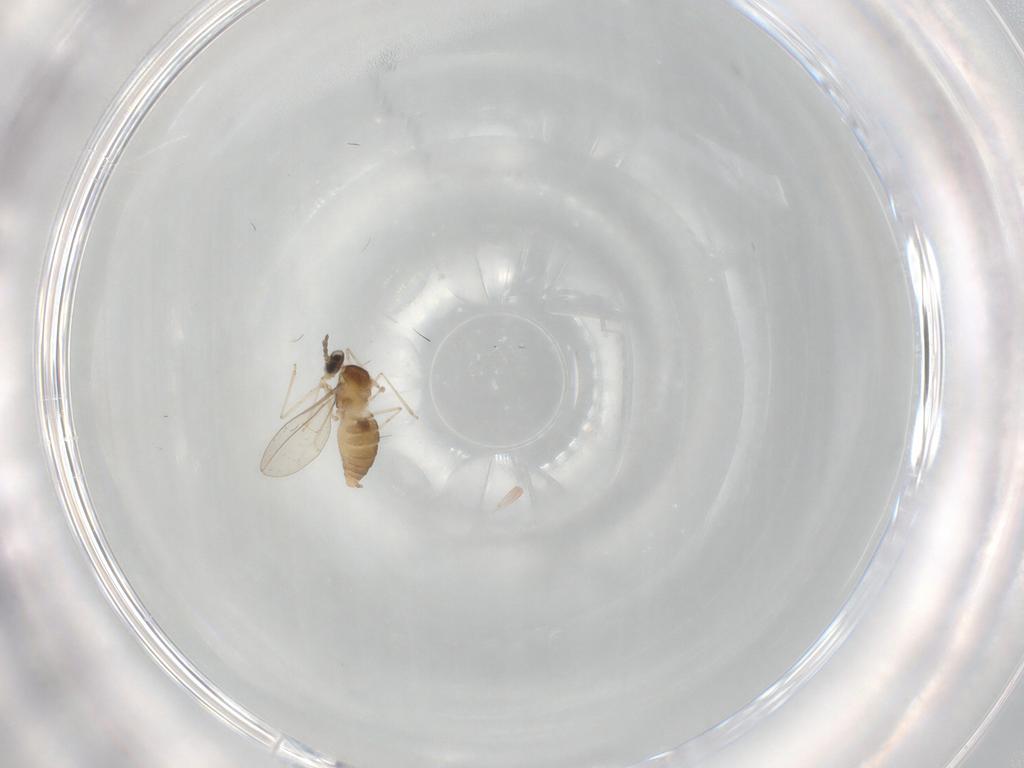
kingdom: Animalia
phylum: Arthropoda
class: Insecta
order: Diptera
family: Cecidomyiidae
